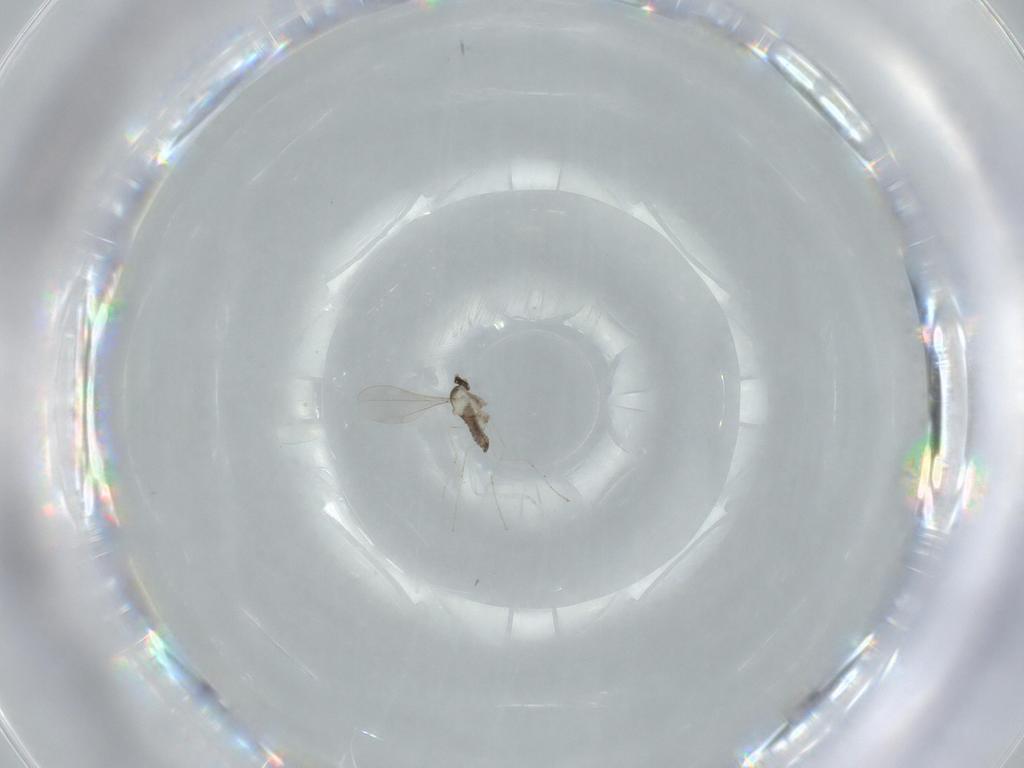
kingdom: Animalia
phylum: Arthropoda
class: Insecta
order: Diptera
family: Cecidomyiidae
